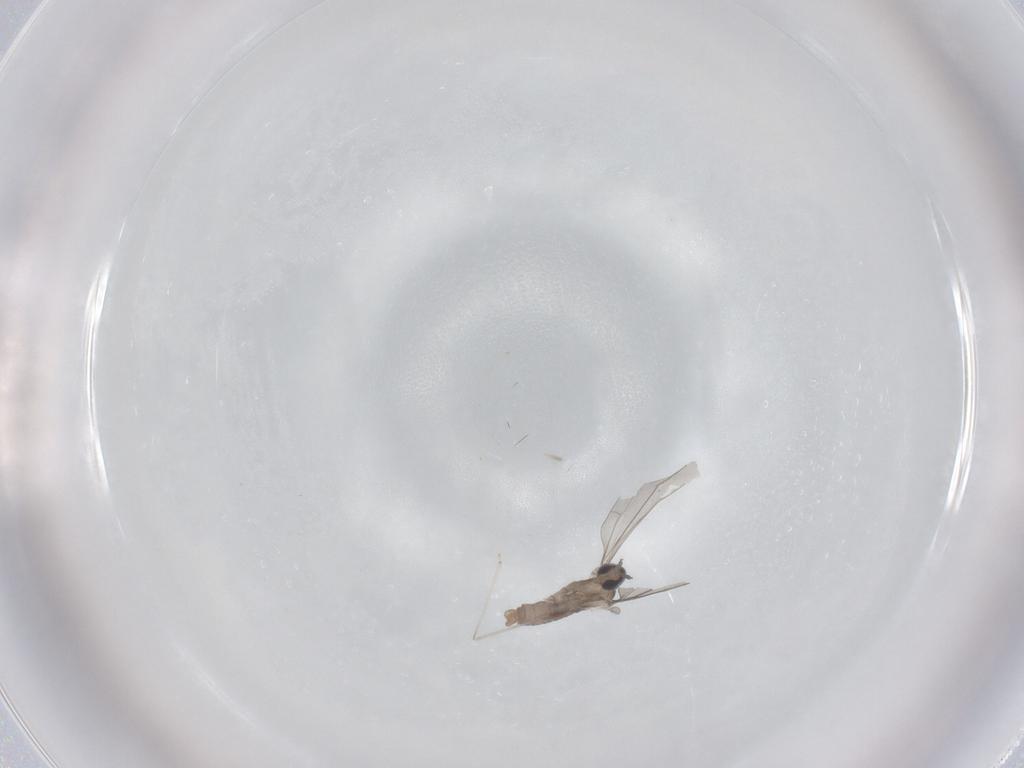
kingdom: Animalia
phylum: Arthropoda
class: Insecta
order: Diptera
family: Cecidomyiidae
